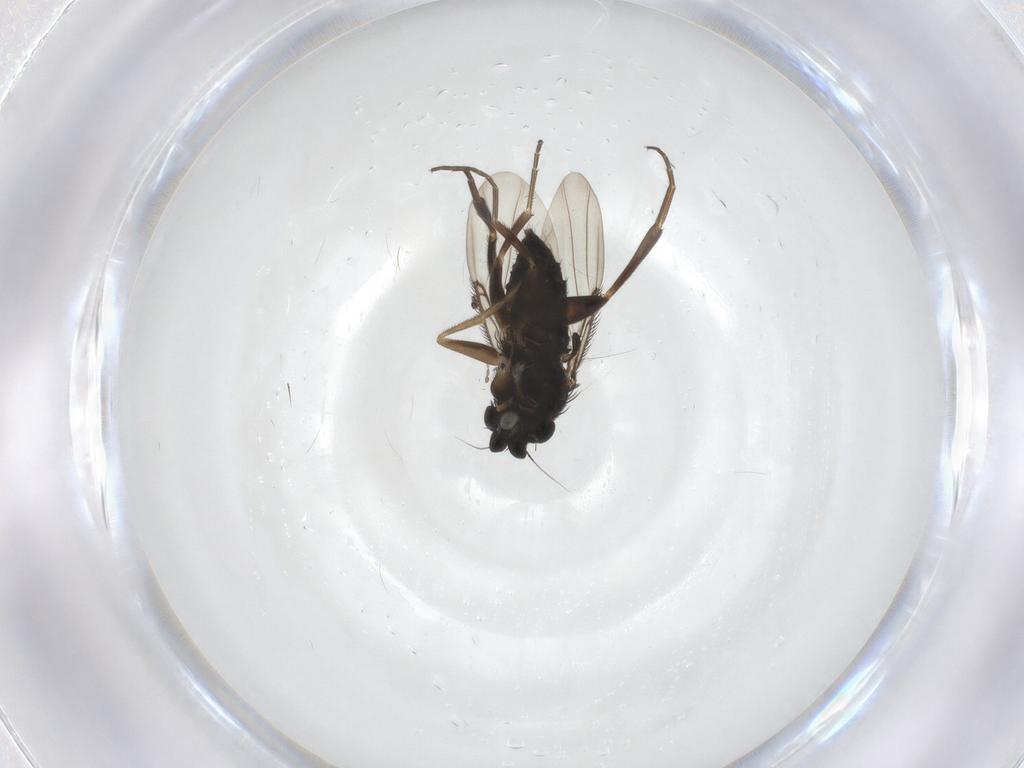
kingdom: Animalia
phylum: Arthropoda
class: Insecta
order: Diptera
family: Phoridae
